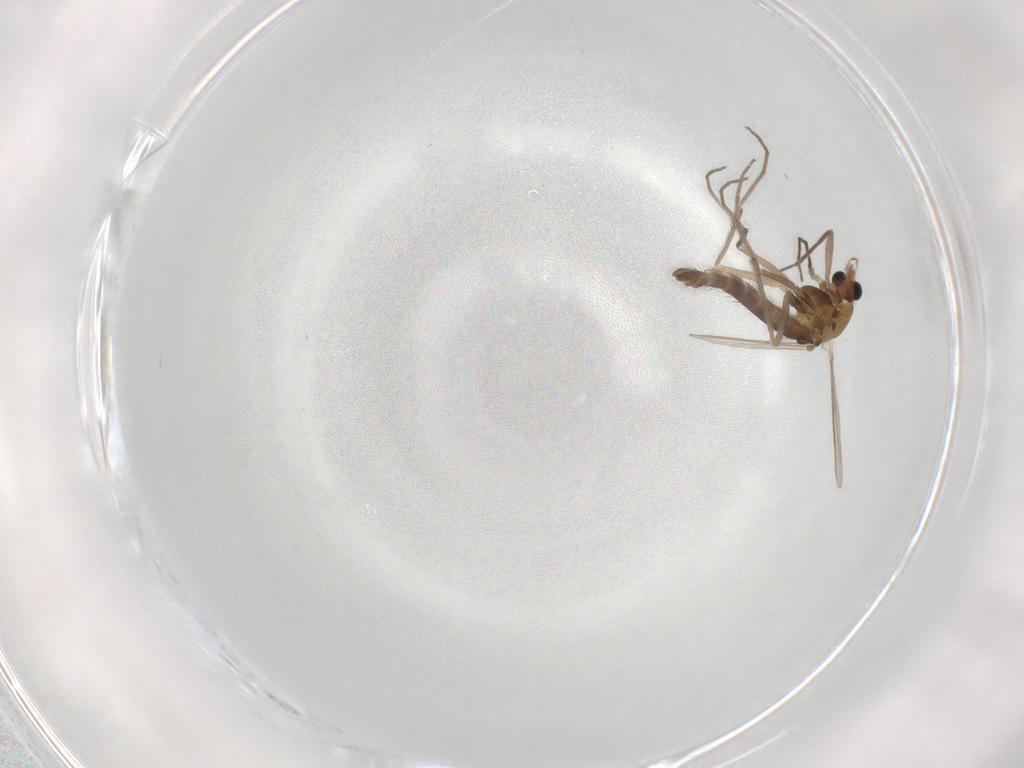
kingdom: Animalia
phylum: Arthropoda
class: Insecta
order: Diptera
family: Chironomidae
